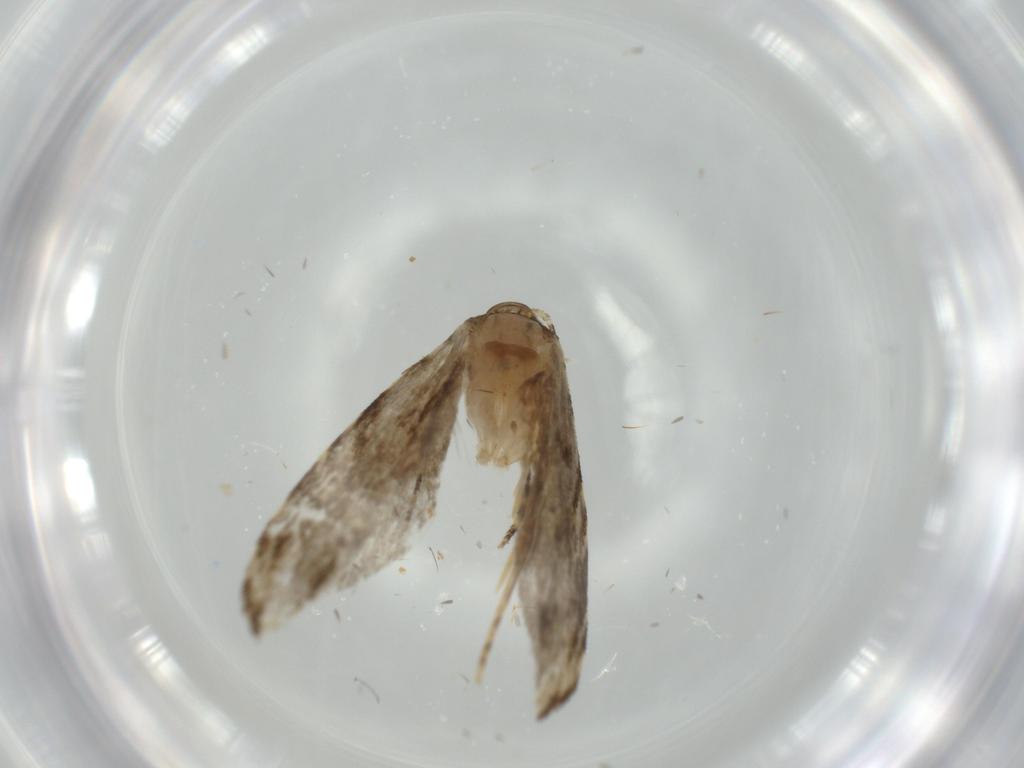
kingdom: Animalia
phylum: Arthropoda
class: Insecta
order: Lepidoptera
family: Tineidae
